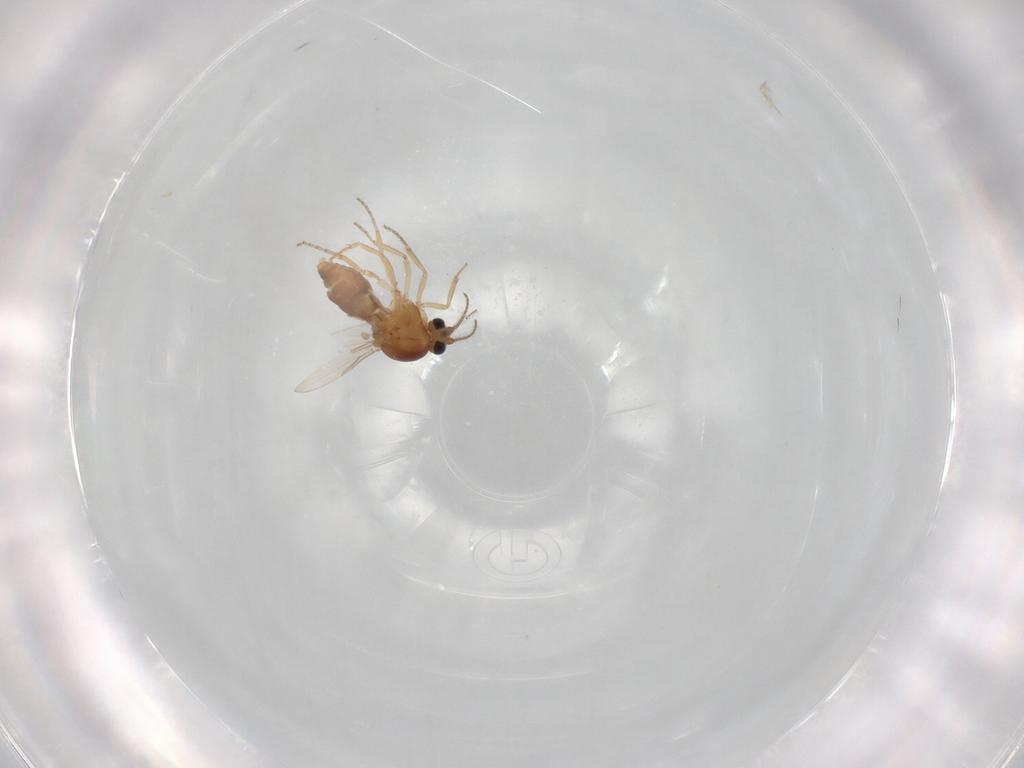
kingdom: Animalia
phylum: Arthropoda
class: Insecta
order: Diptera
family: Ceratopogonidae
